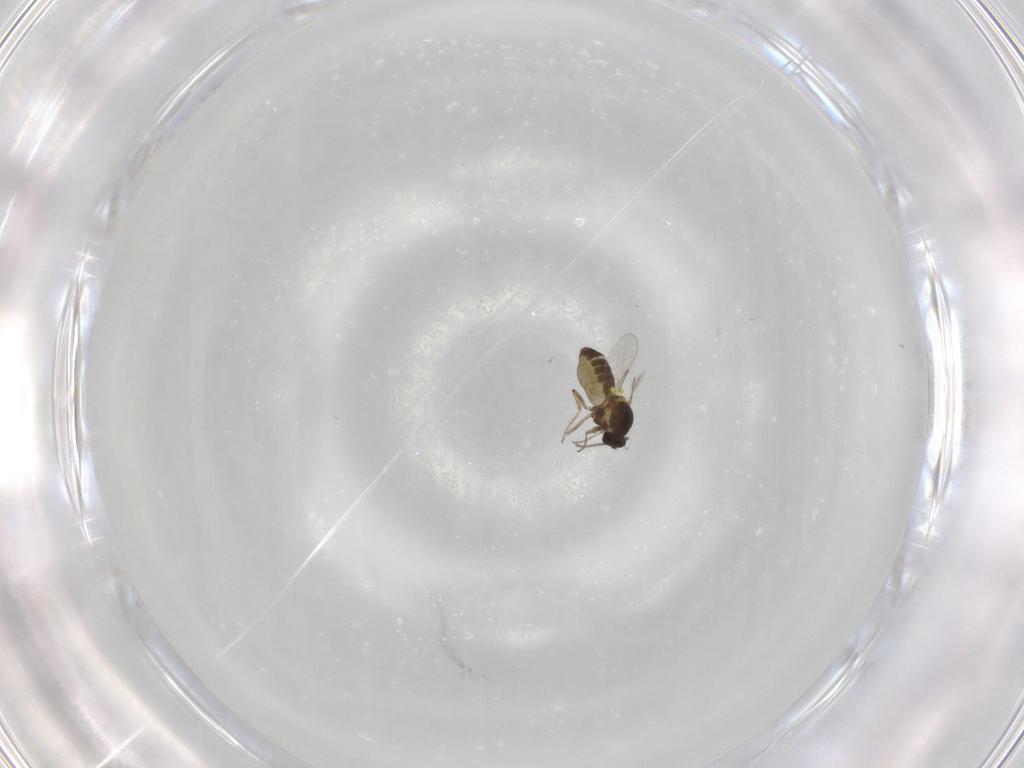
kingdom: Animalia
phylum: Arthropoda
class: Insecta
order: Diptera
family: Ceratopogonidae
